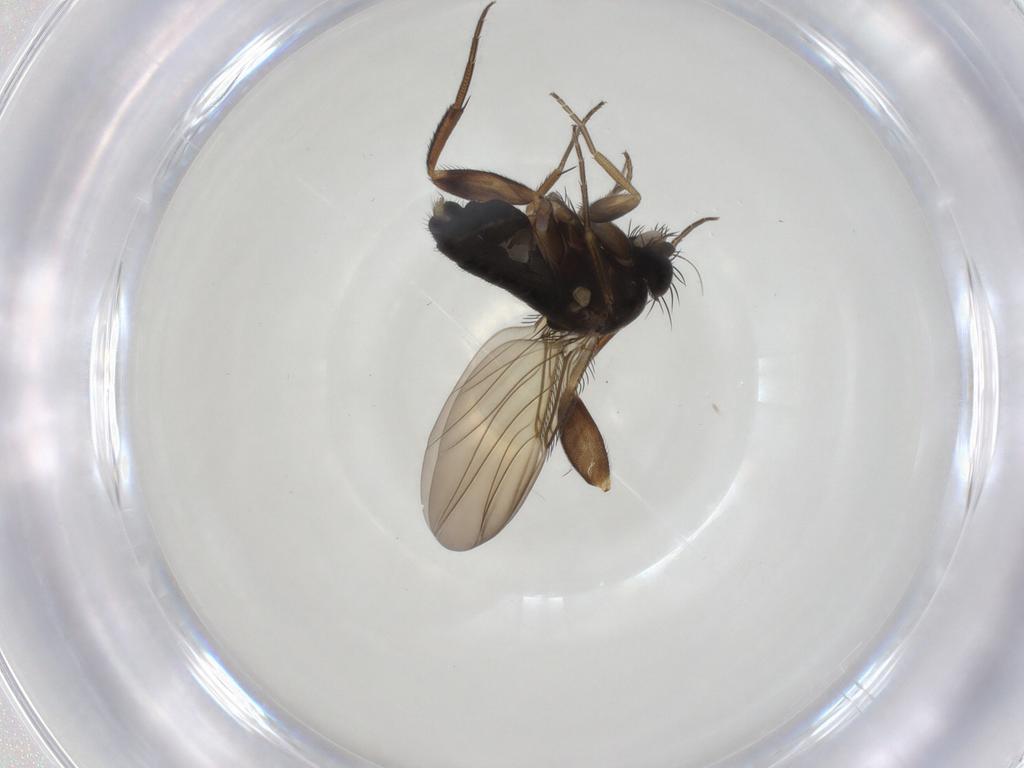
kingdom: Animalia
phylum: Arthropoda
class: Insecta
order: Diptera
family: Phoridae
